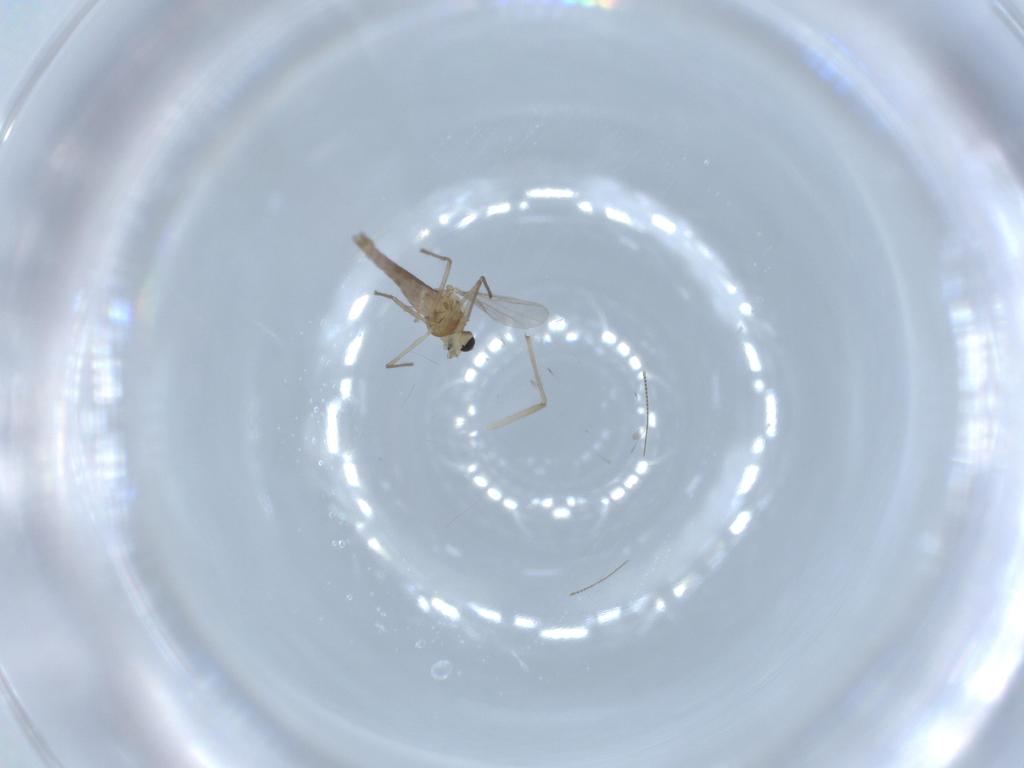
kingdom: Animalia
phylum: Arthropoda
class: Insecta
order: Diptera
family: Chironomidae
